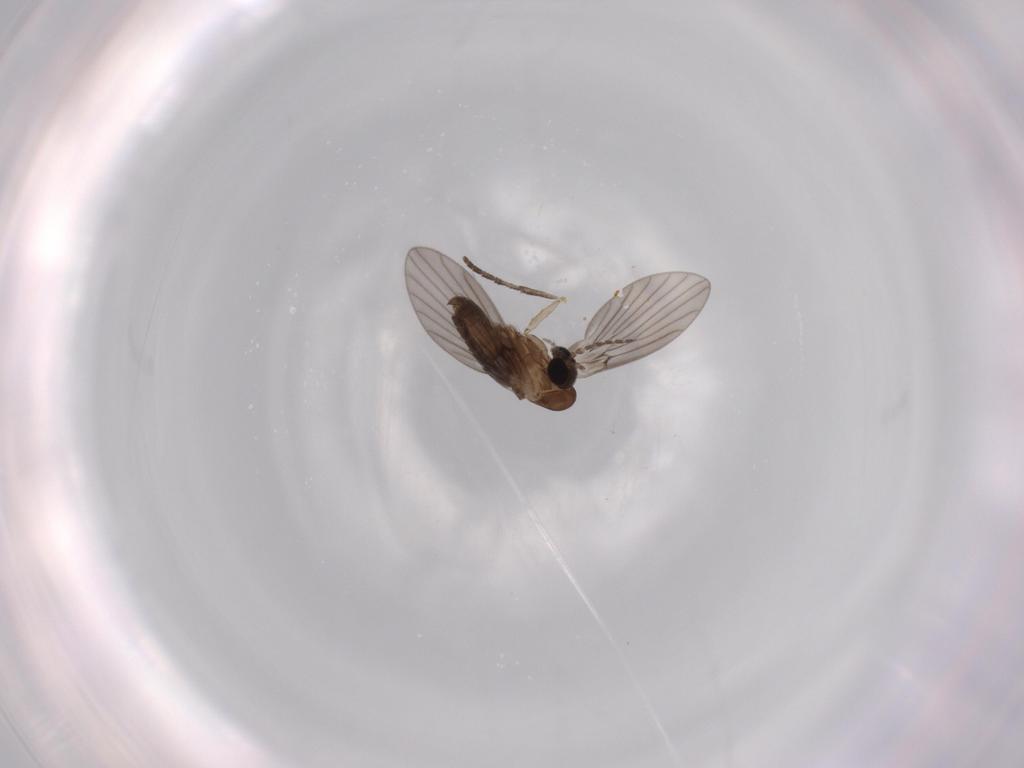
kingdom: Animalia
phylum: Arthropoda
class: Insecta
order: Diptera
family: Psychodidae
